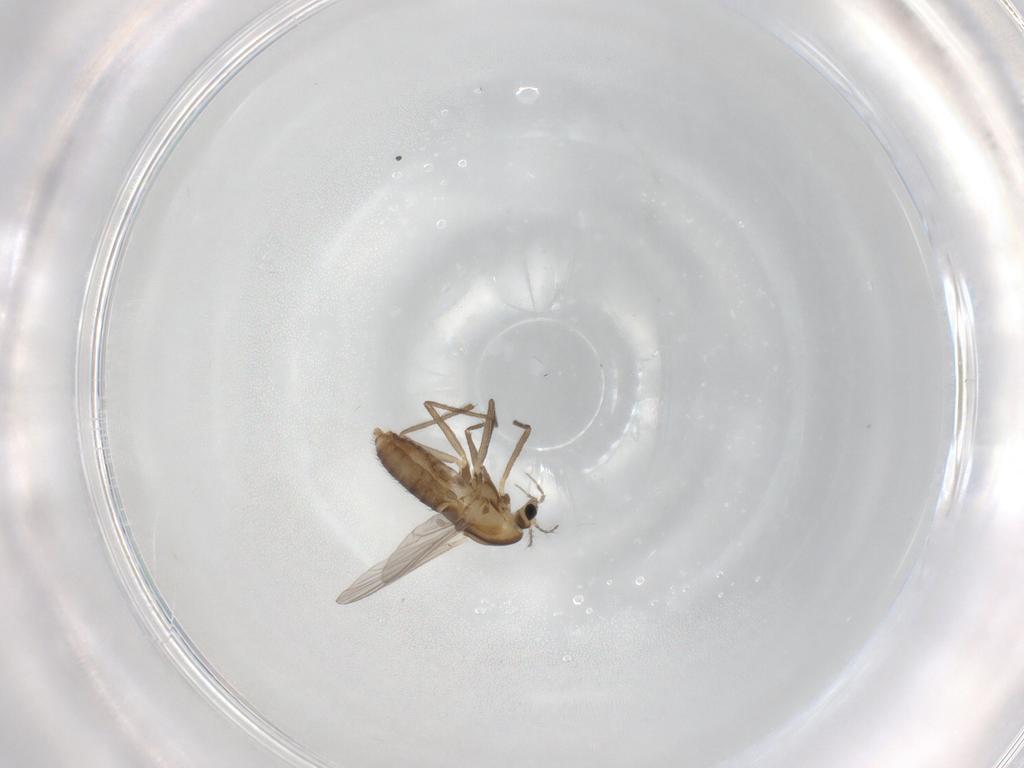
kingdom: Animalia
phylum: Arthropoda
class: Insecta
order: Diptera
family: Chironomidae
